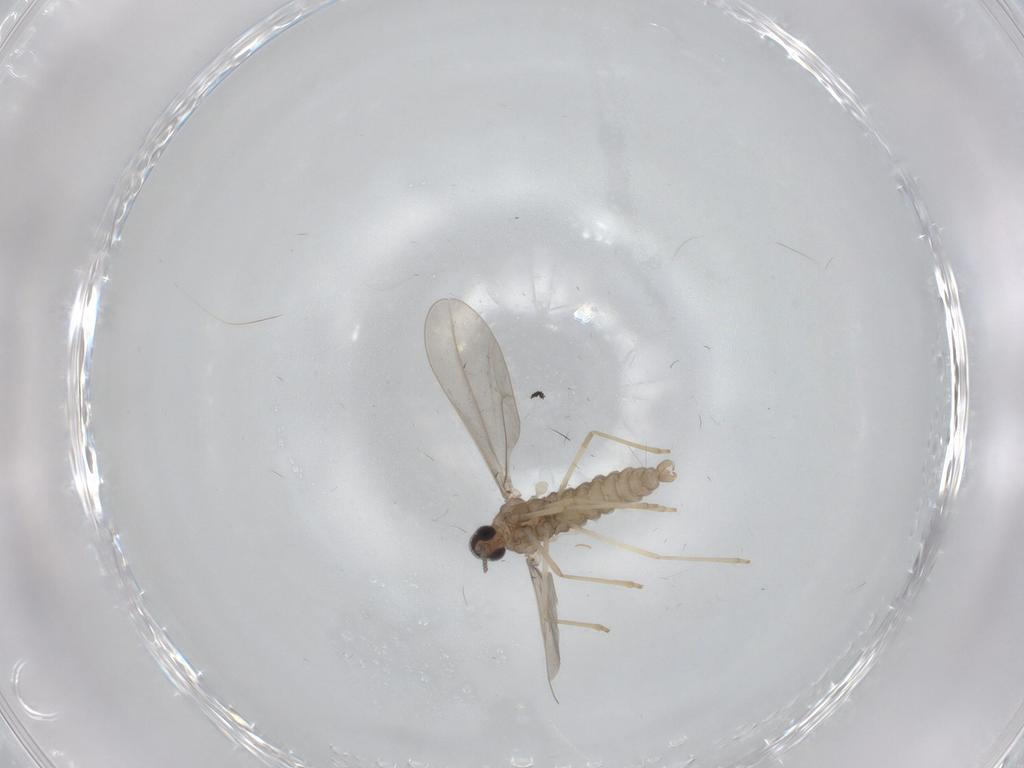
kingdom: Animalia
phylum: Arthropoda
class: Insecta
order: Diptera
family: Cecidomyiidae
